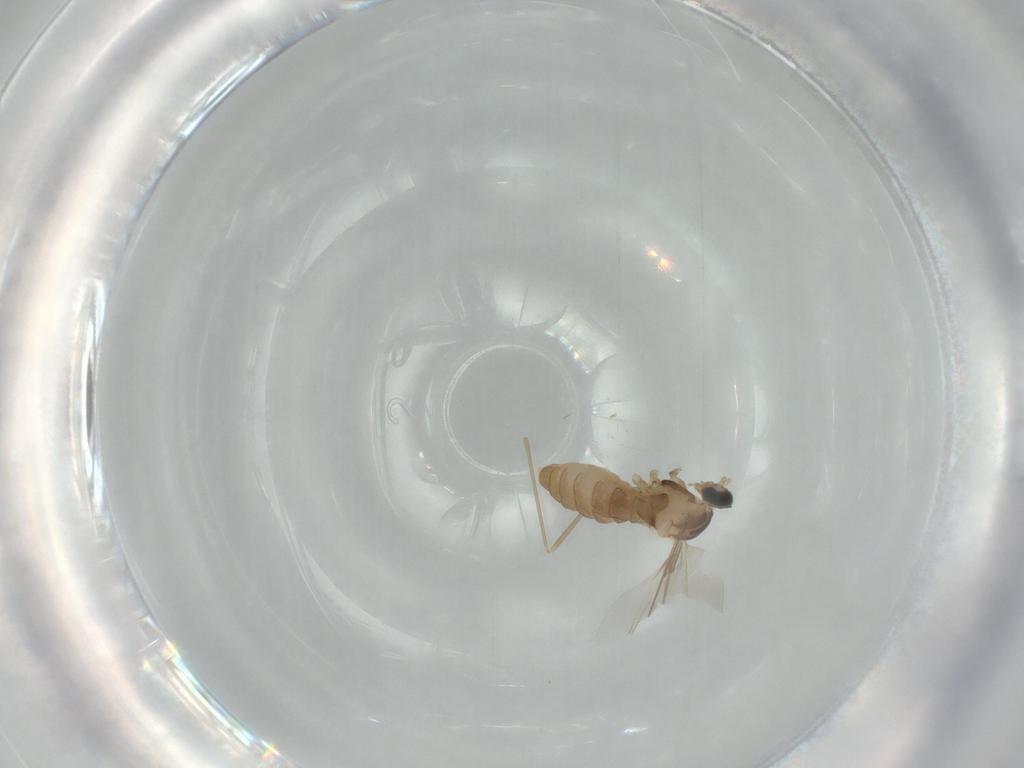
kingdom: Animalia
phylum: Arthropoda
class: Insecta
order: Diptera
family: Cecidomyiidae
